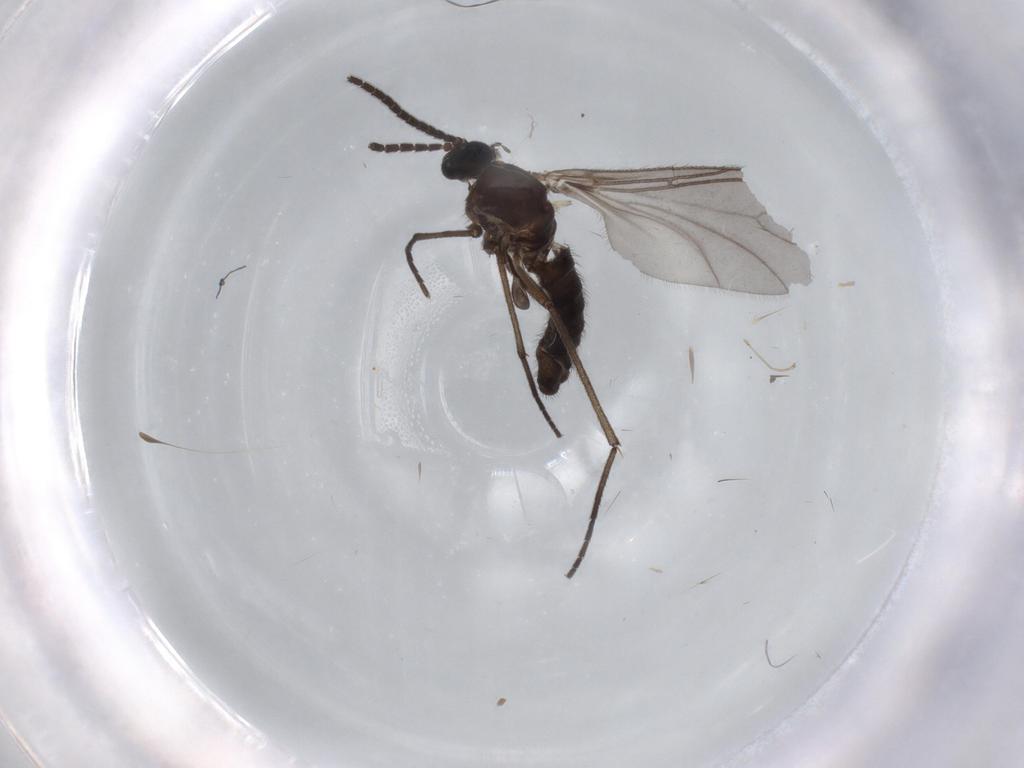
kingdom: Animalia
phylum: Arthropoda
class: Insecta
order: Diptera
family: Sciaridae
